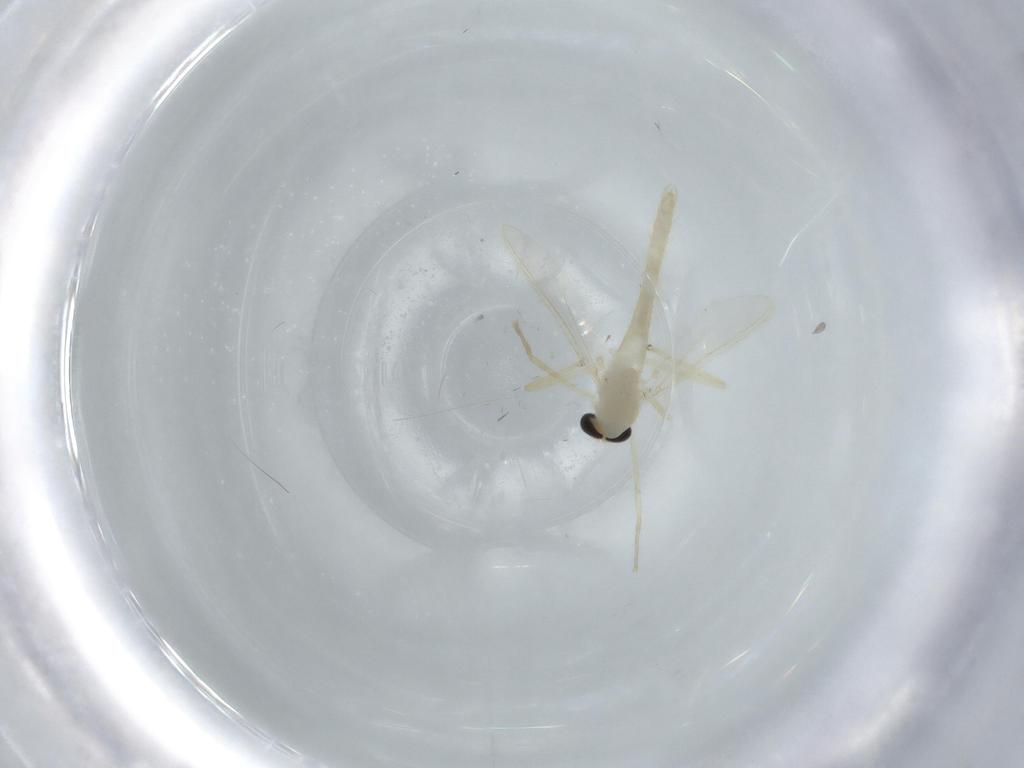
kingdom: Animalia
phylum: Arthropoda
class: Insecta
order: Diptera
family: Chironomidae
